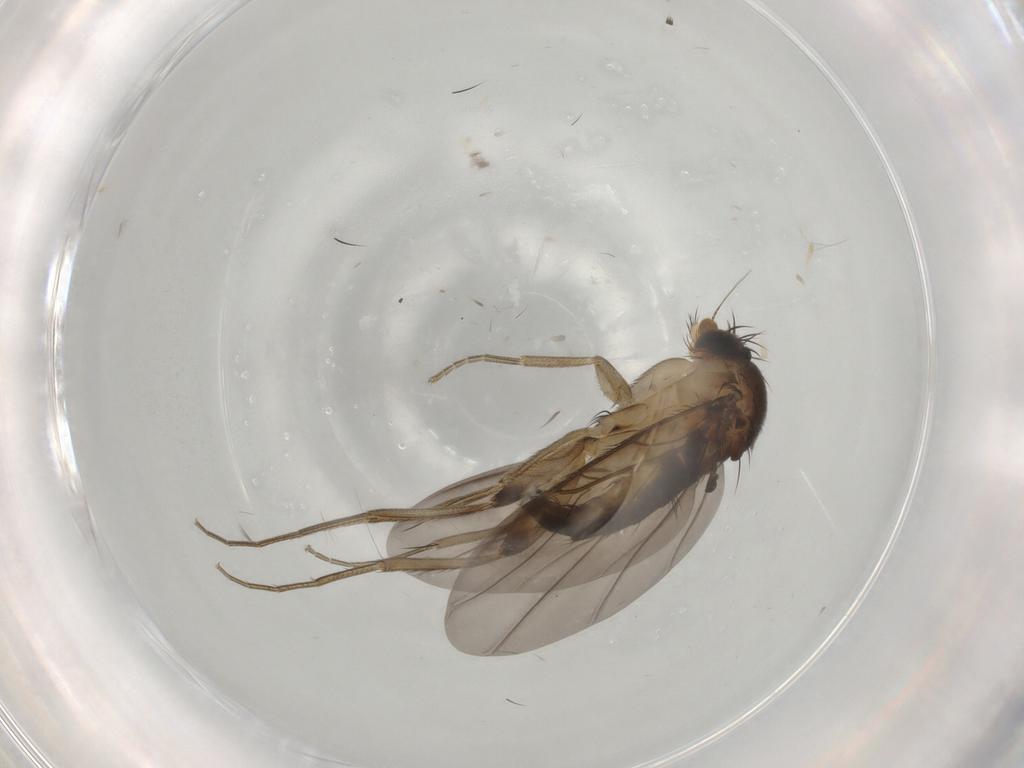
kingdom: Animalia
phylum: Arthropoda
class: Insecta
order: Diptera
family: Phoridae
